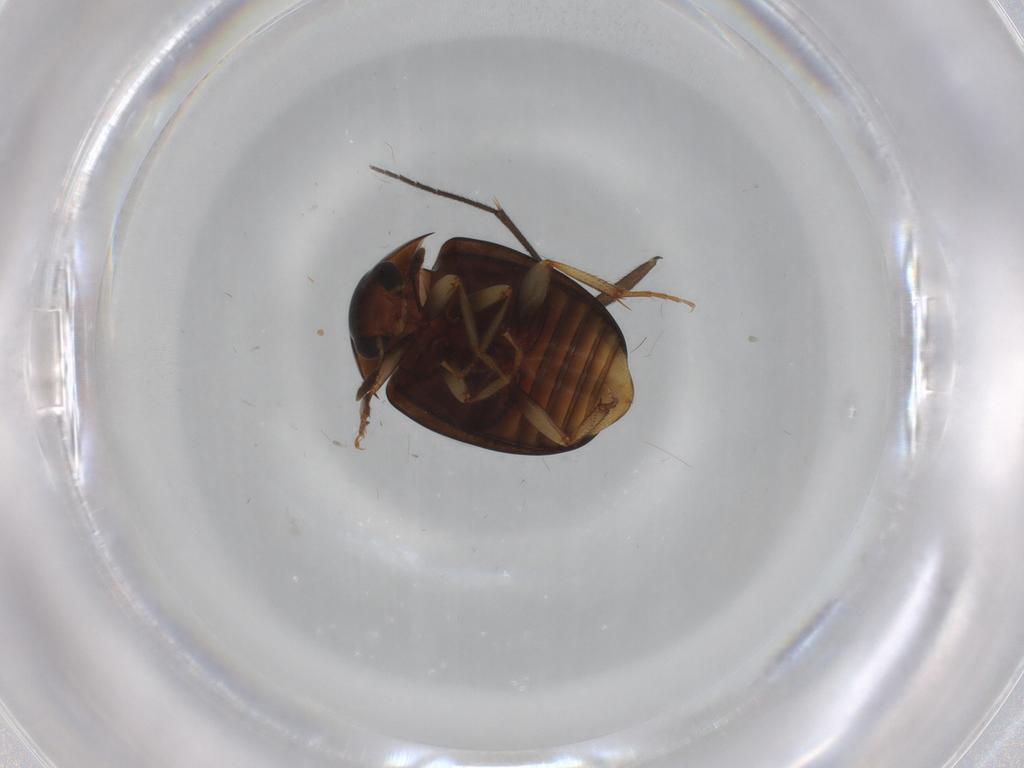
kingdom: Animalia
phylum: Arthropoda
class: Insecta
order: Coleoptera
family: Nitidulidae
